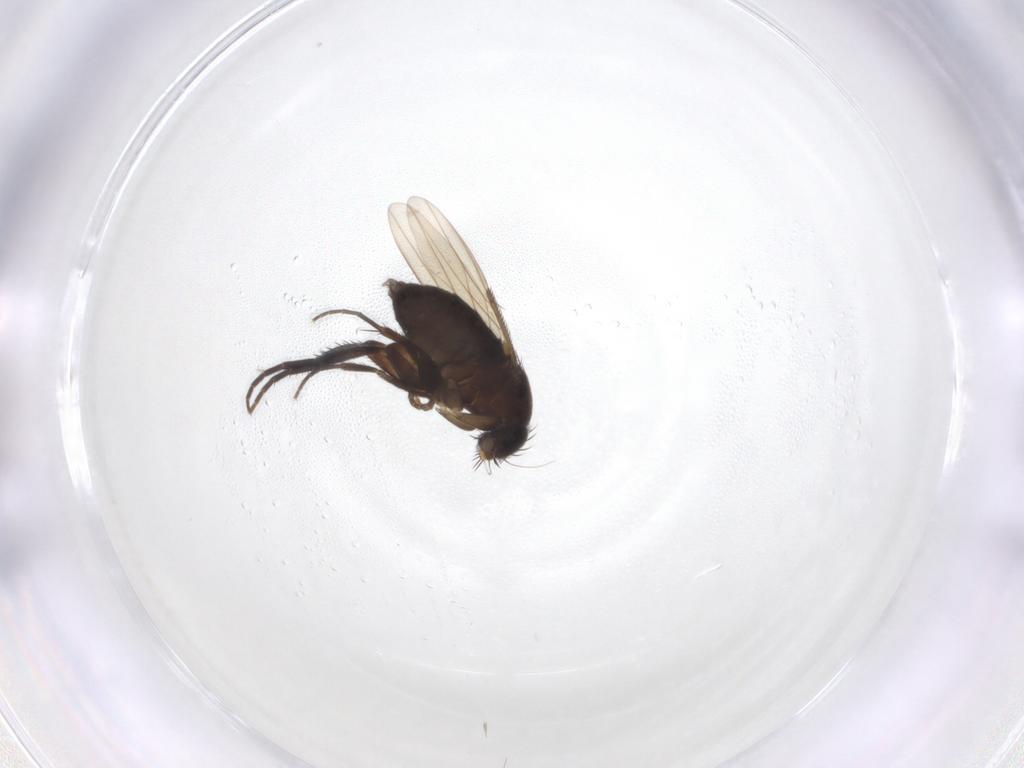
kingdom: Animalia
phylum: Arthropoda
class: Insecta
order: Diptera
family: Phoridae
